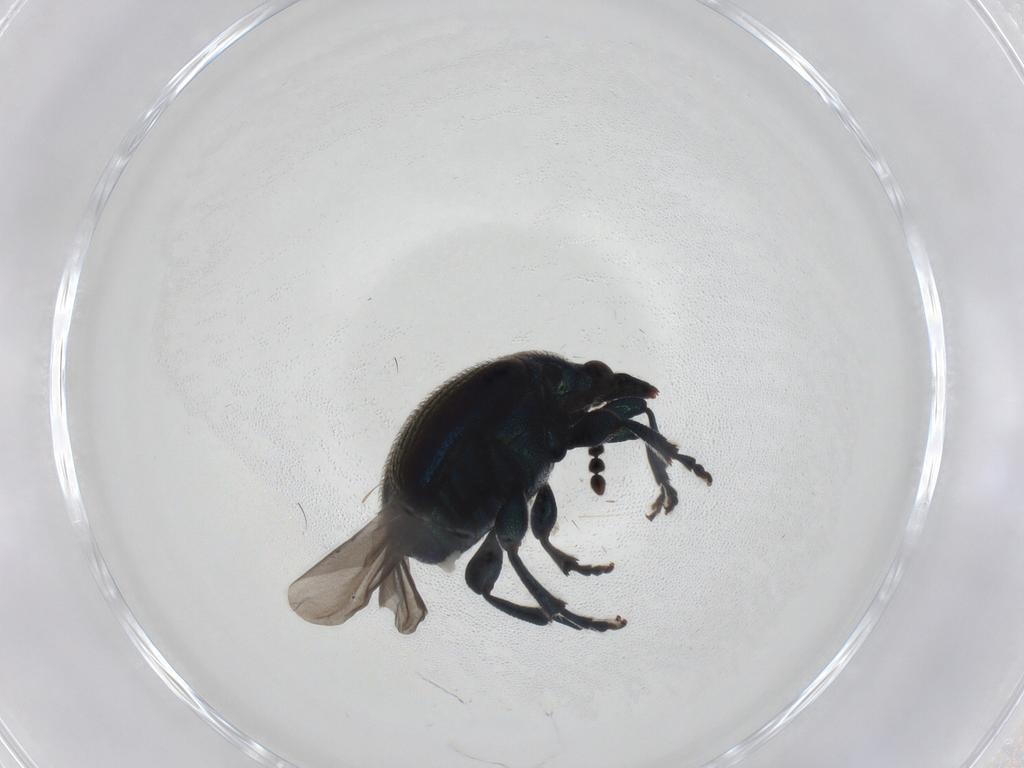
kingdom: Animalia
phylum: Arthropoda
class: Insecta
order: Coleoptera
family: Attelabidae
